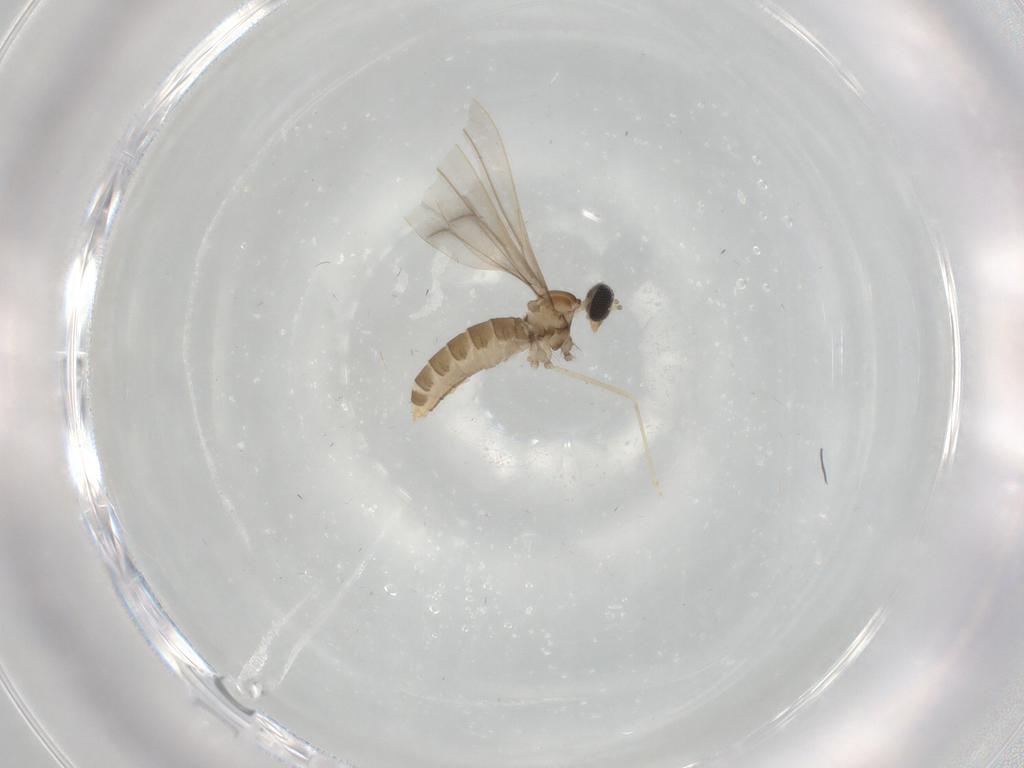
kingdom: Animalia
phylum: Arthropoda
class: Insecta
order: Diptera
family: Cecidomyiidae
